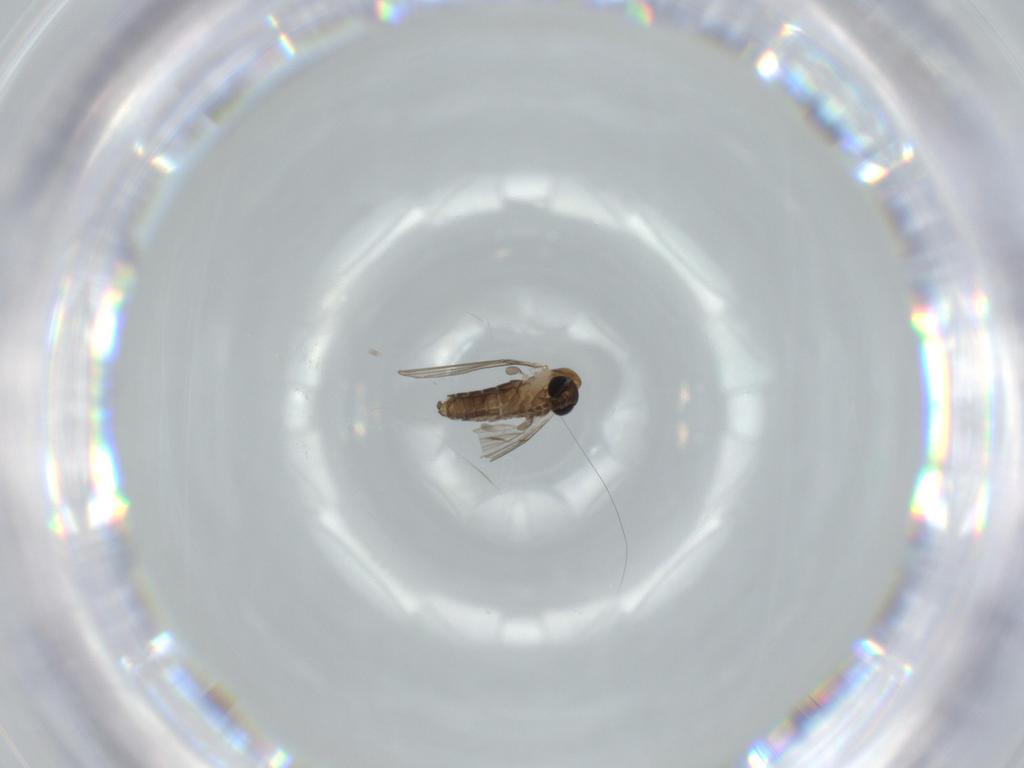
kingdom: Animalia
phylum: Arthropoda
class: Insecta
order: Diptera
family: Psychodidae
